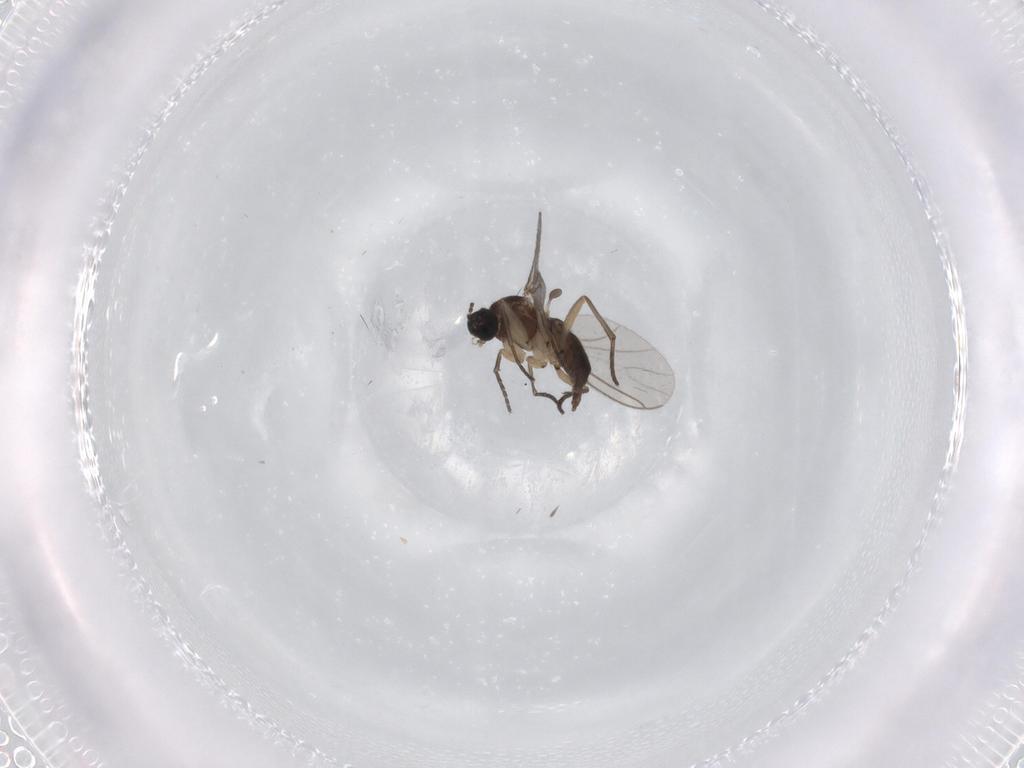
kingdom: Animalia
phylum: Arthropoda
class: Insecta
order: Diptera
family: Sciaridae
